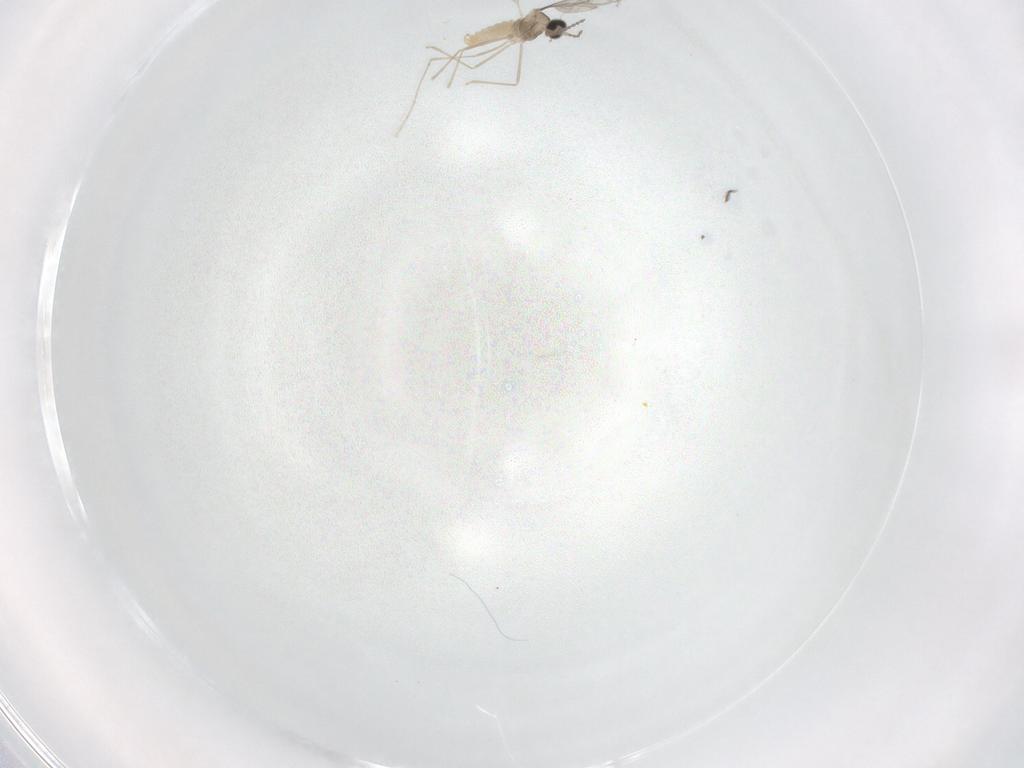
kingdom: Animalia
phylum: Arthropoda
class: Insecta
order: Diptera
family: Cecidomyiidae
